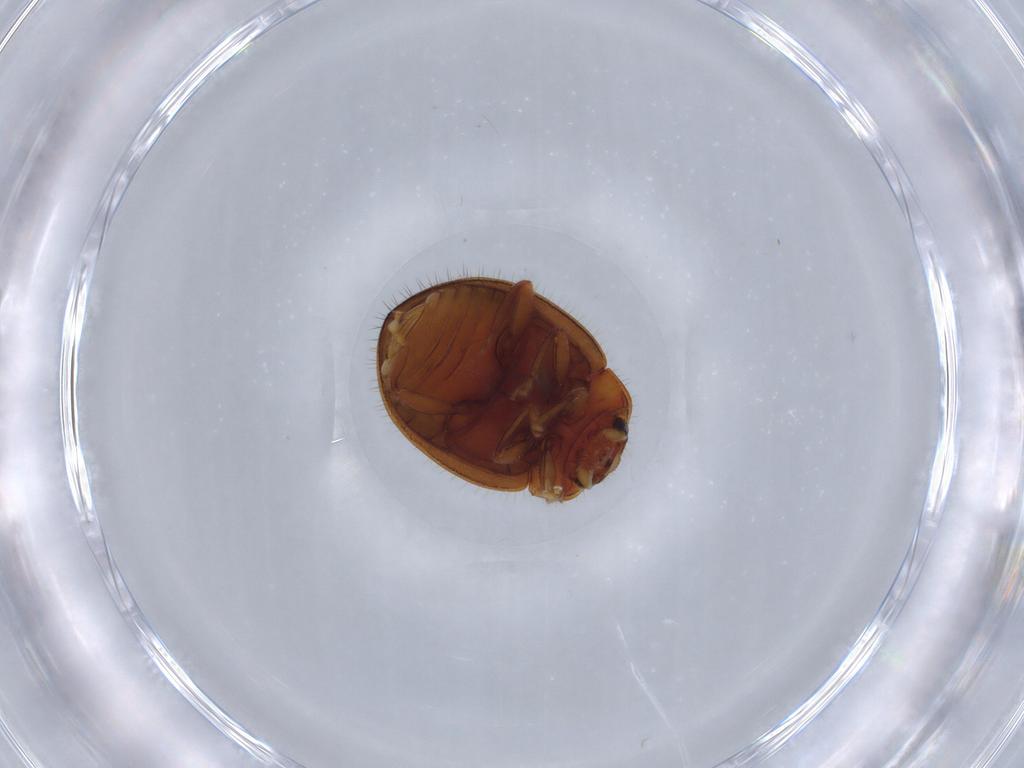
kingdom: Animalia
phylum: Arthropoda
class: Insecta
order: Coleoptera
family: Coccinellidae
